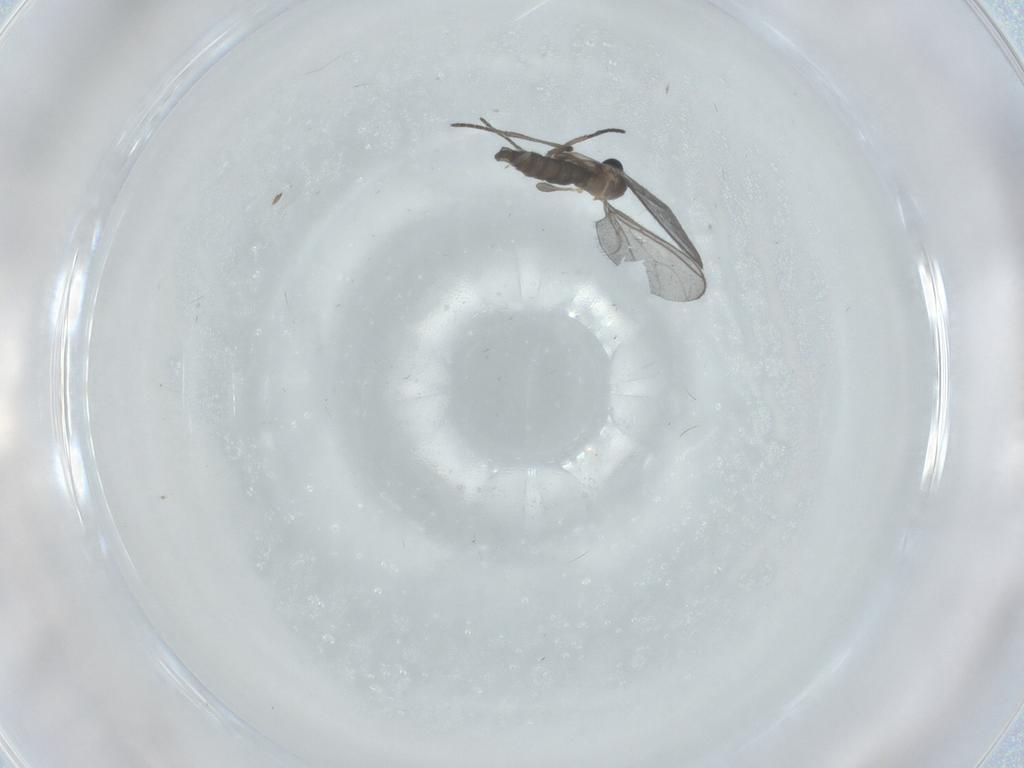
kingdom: Animalia
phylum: Arthropoda
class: Insecta
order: Diptera
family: Phoridae
